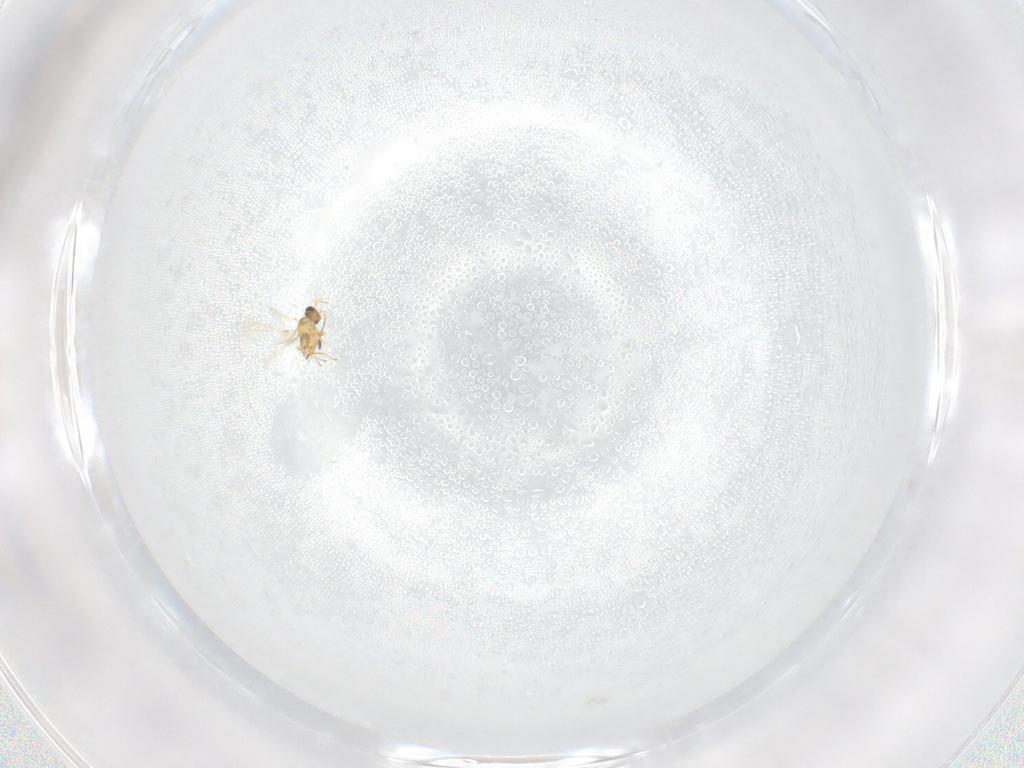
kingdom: Animalia
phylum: Arthropoda
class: Insecta
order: Hymenoptera
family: Mymaridae
